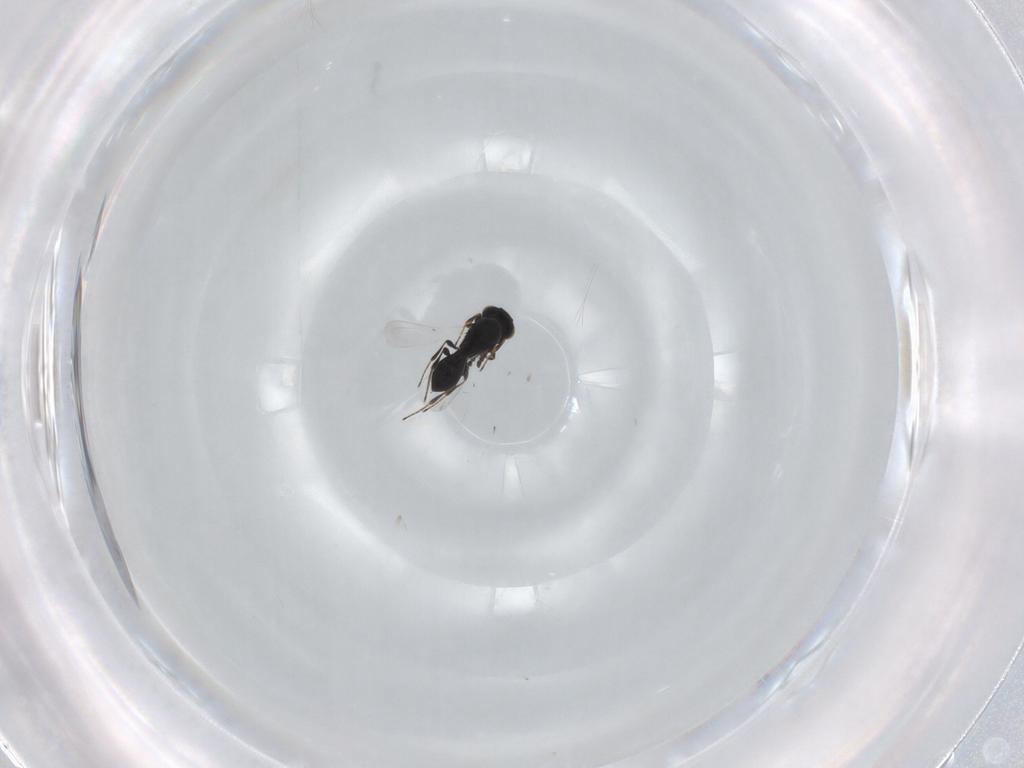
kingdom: Animalia
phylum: Arthropoda
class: Insecta
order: Hymenoptera
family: Platygastridae
